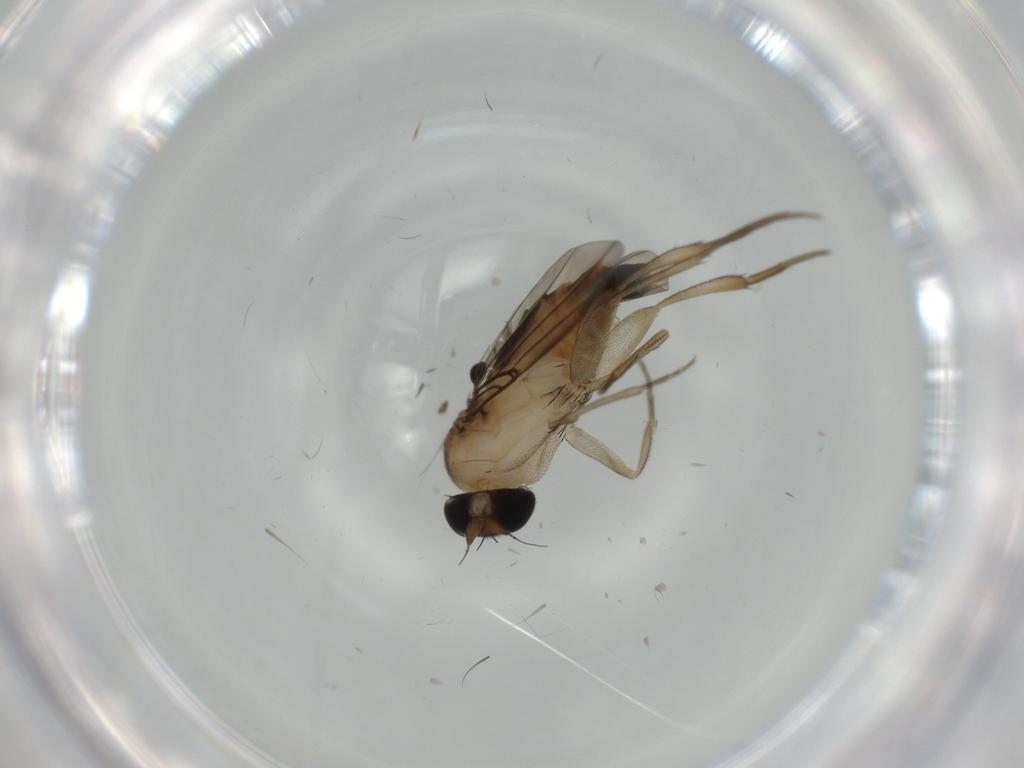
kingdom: Animalia
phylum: Arthropoda
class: Insecta
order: Diptera
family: Phoridae
